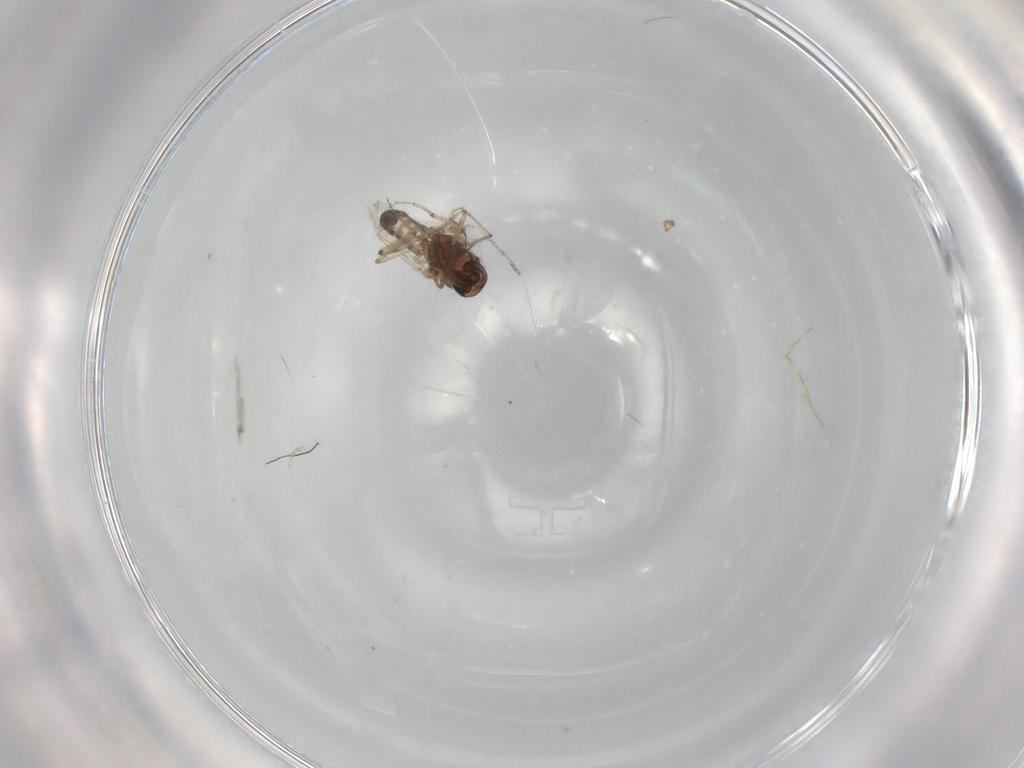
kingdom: Animalia
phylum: Arthropoda
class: Insecta
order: Diptera
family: Ceratopogonidae
